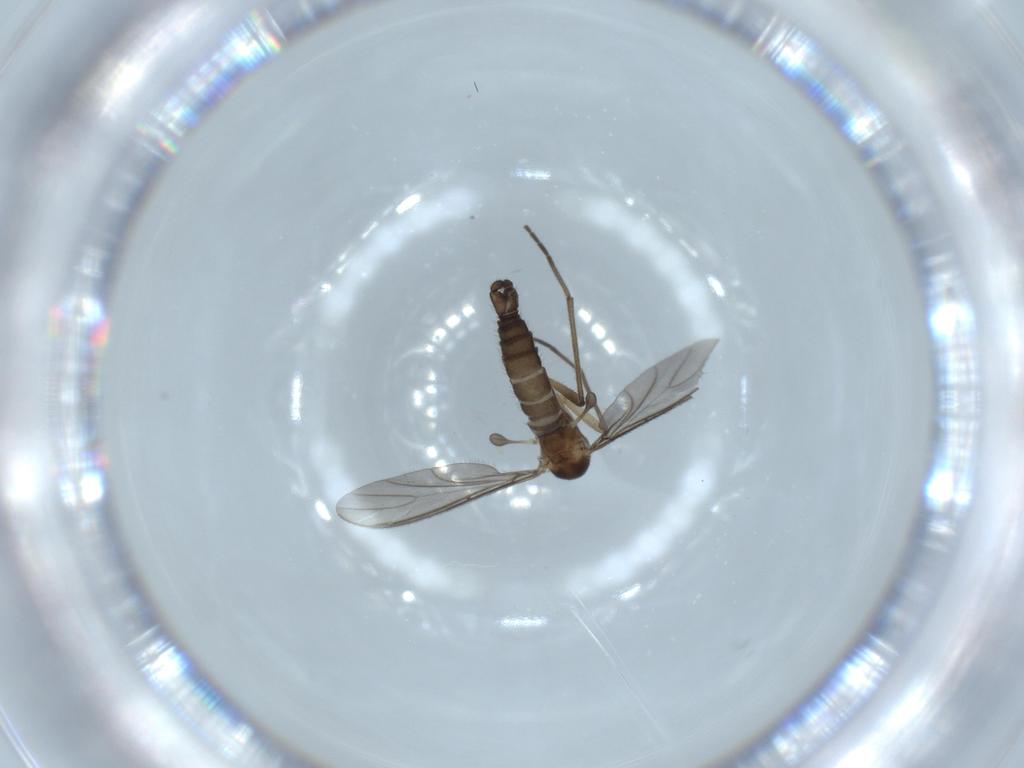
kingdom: Animalia
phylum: Arthropoda
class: Insecta
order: Diptera
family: Sciaridae
